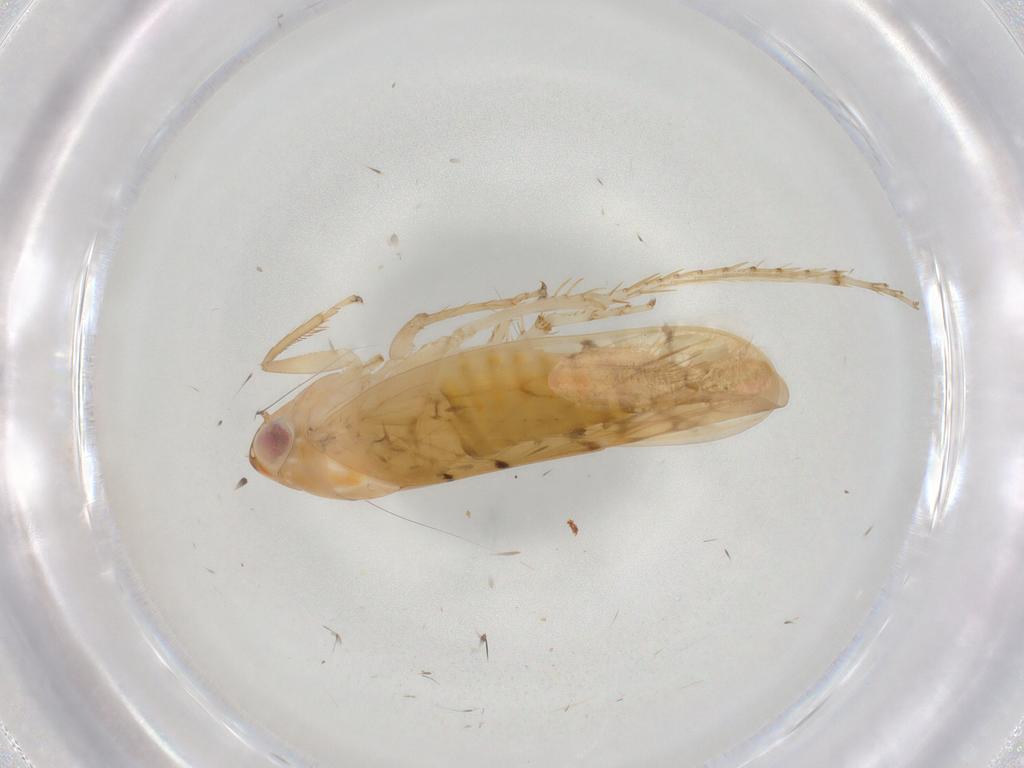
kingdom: Animalia
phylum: Arthropoda
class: Insecta
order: Hemiptera
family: Cicadellidae
